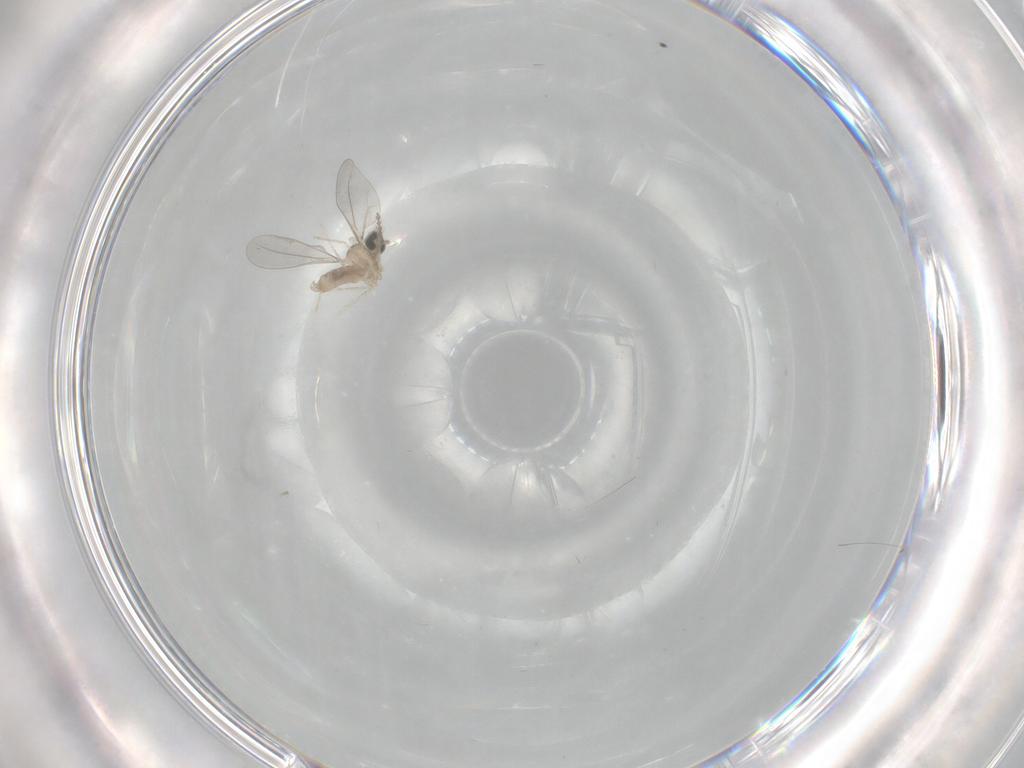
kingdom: Animalia
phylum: Arthropoda
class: Insecta
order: Diptera
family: Cecidomyiidae
